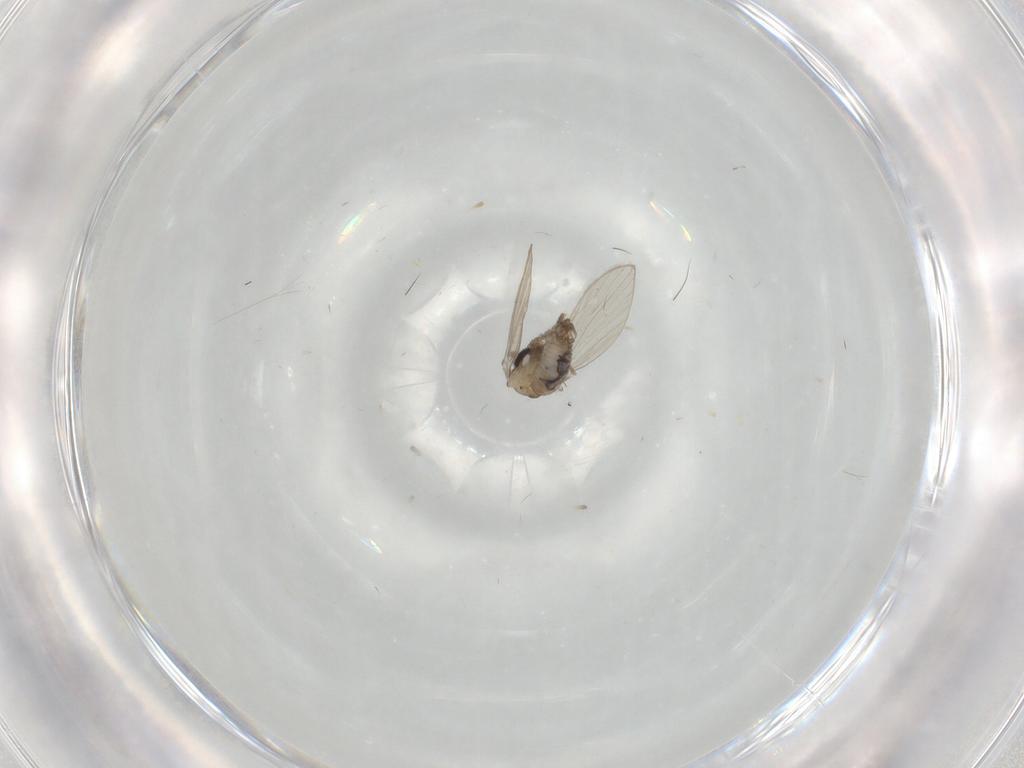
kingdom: Animalia
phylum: Arthropoda
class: Insecta
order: Diptera
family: Psychodidae
